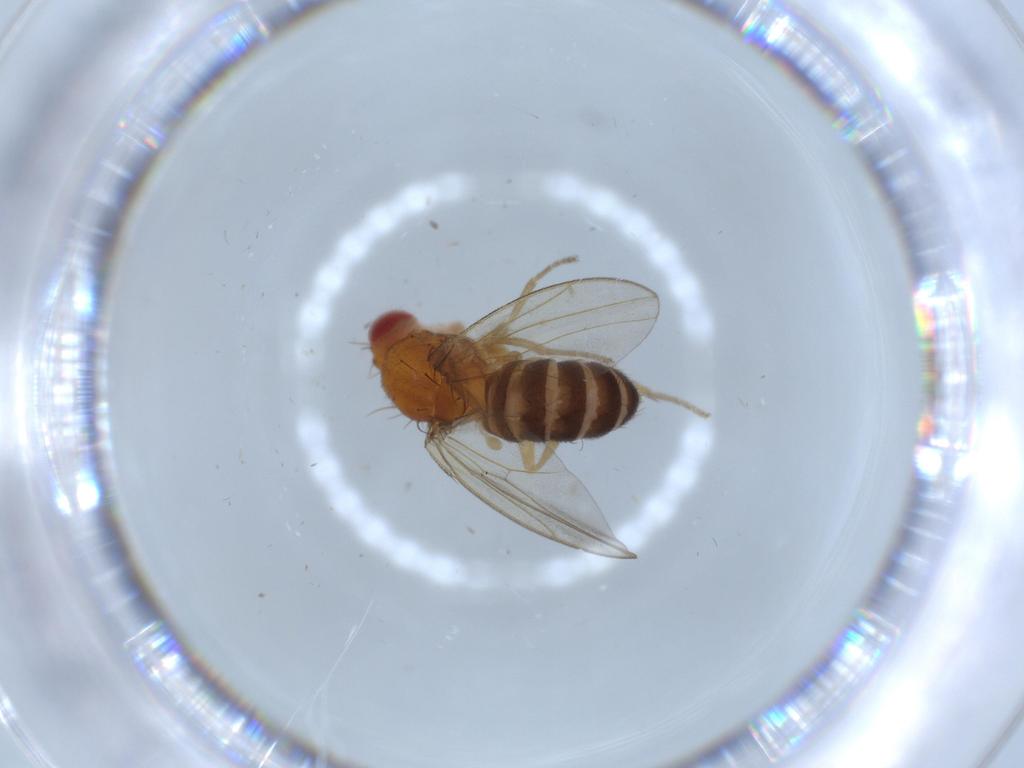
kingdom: Animalia
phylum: Arthropoda
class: Insecta
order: Diptera
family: Drosophilidae
